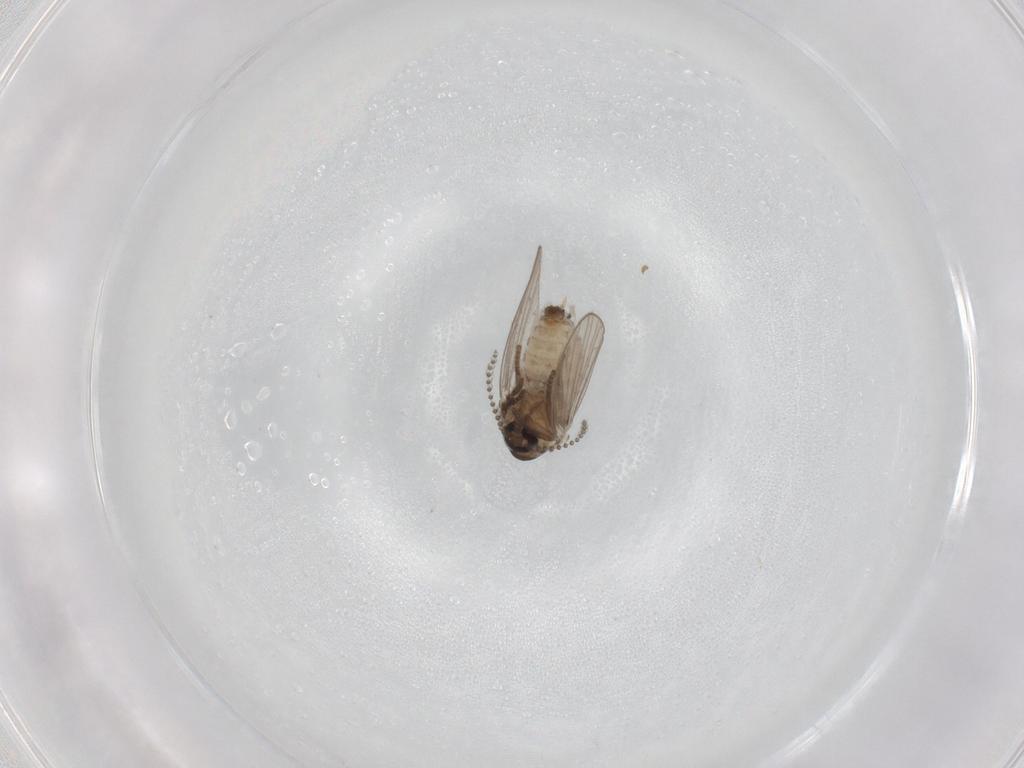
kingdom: Animalia
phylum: Arthropoda
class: Insecta
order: Diptera
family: Psychodidae
